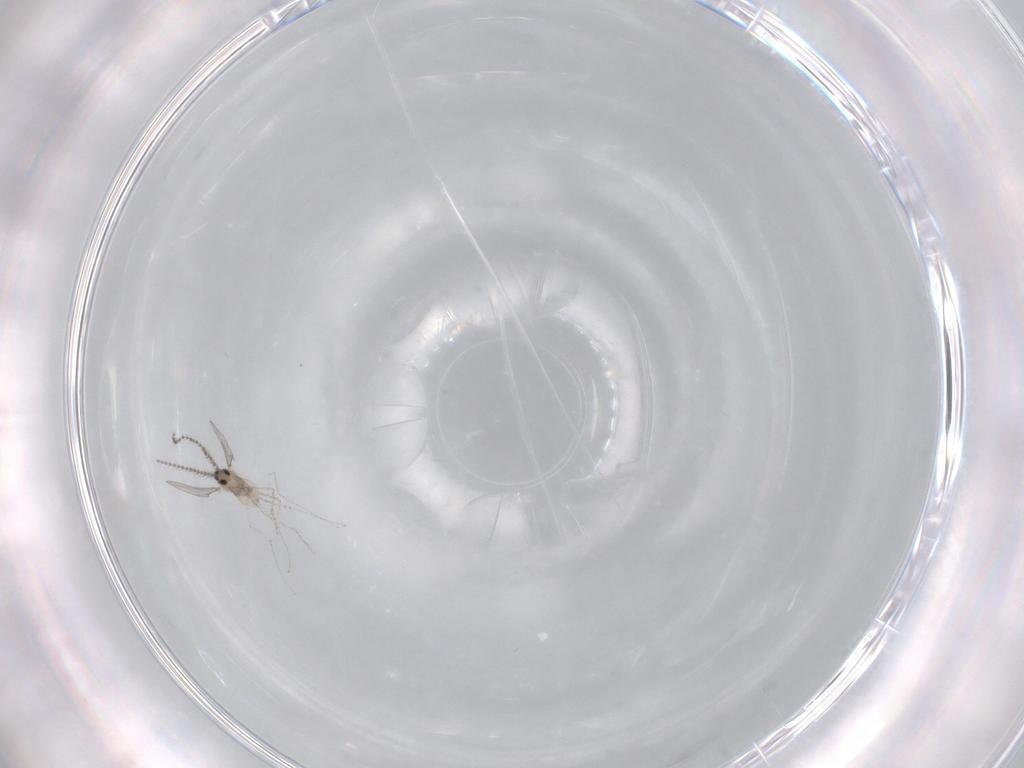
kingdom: Animalia
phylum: Arthropoda
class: Insecta
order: Diptera
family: Cecidomyiidae
